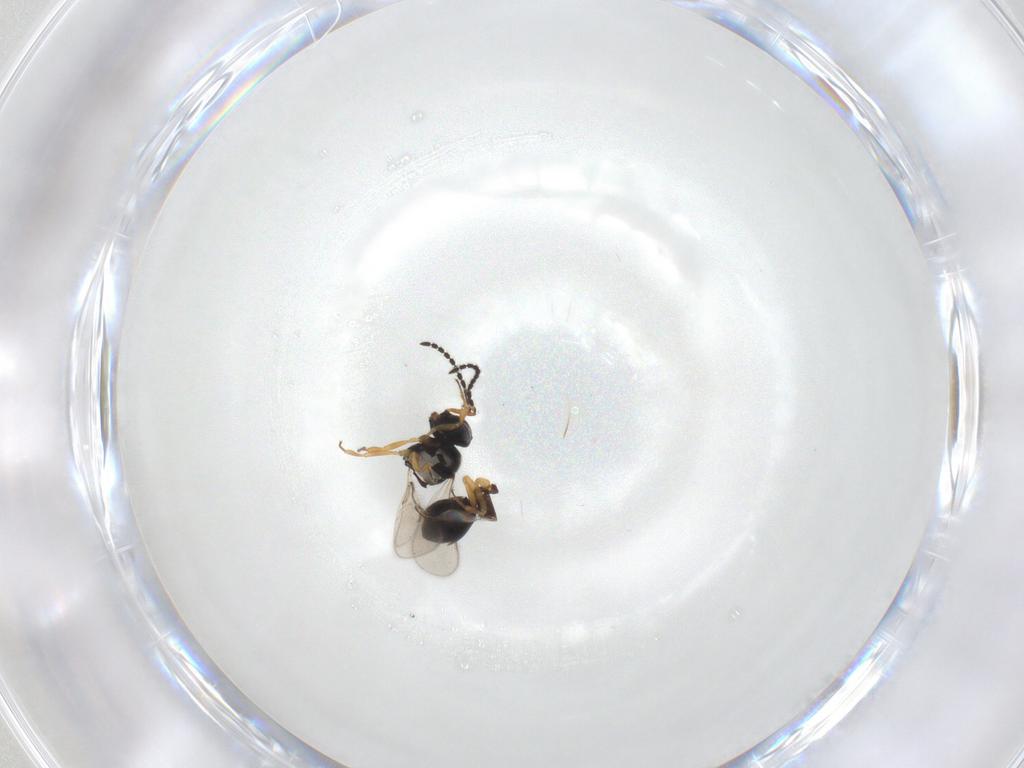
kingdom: Animalia
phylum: Arthropoda
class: Insecta
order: Hymenoptera
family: Scelionidae
